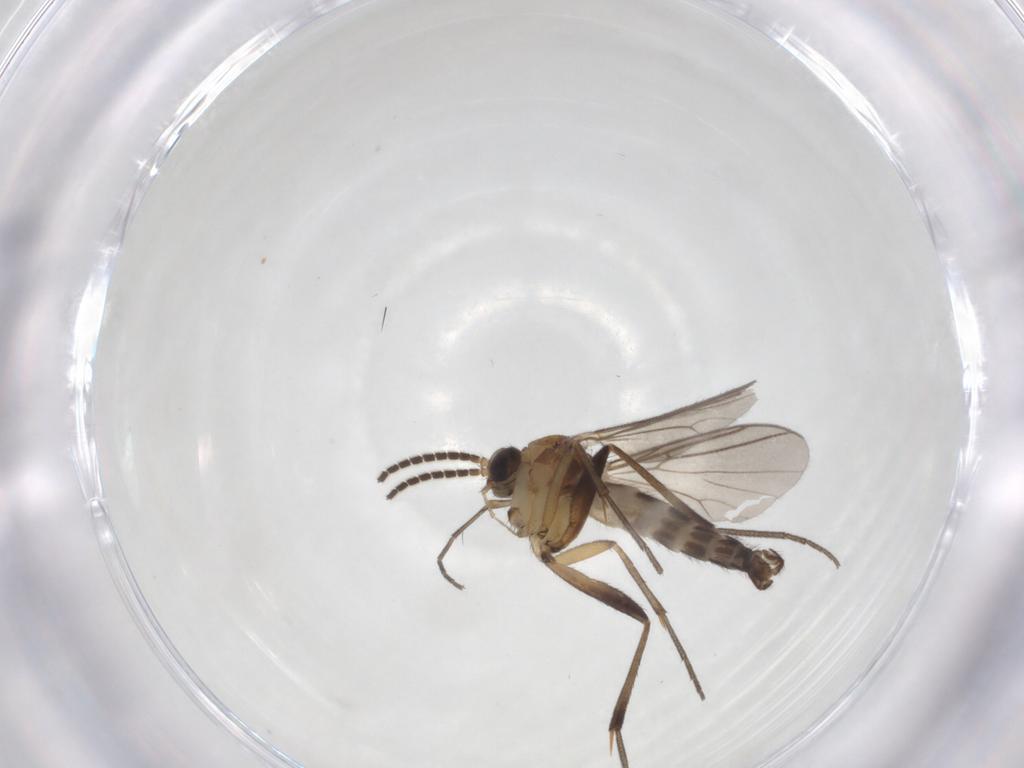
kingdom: Animalia
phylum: Arthropoda
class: Insecta
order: Diptera
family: Mycetophilidae
